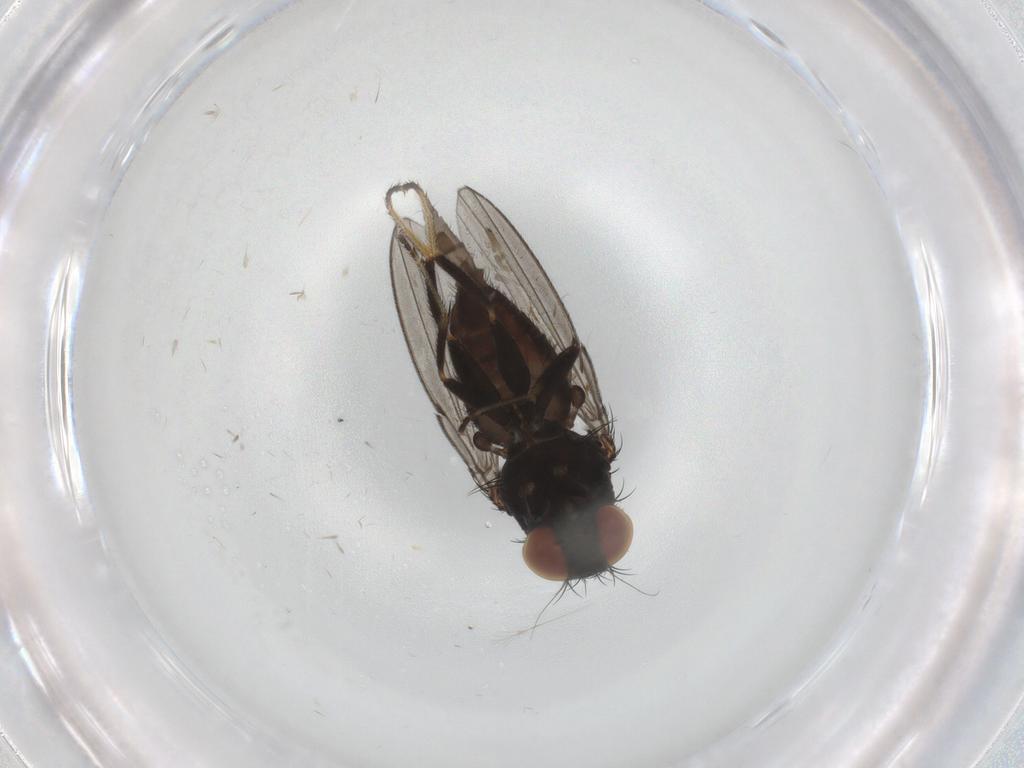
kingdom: Animalia
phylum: Arthropoda
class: Insecta
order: Diptera
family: Milichiidae
